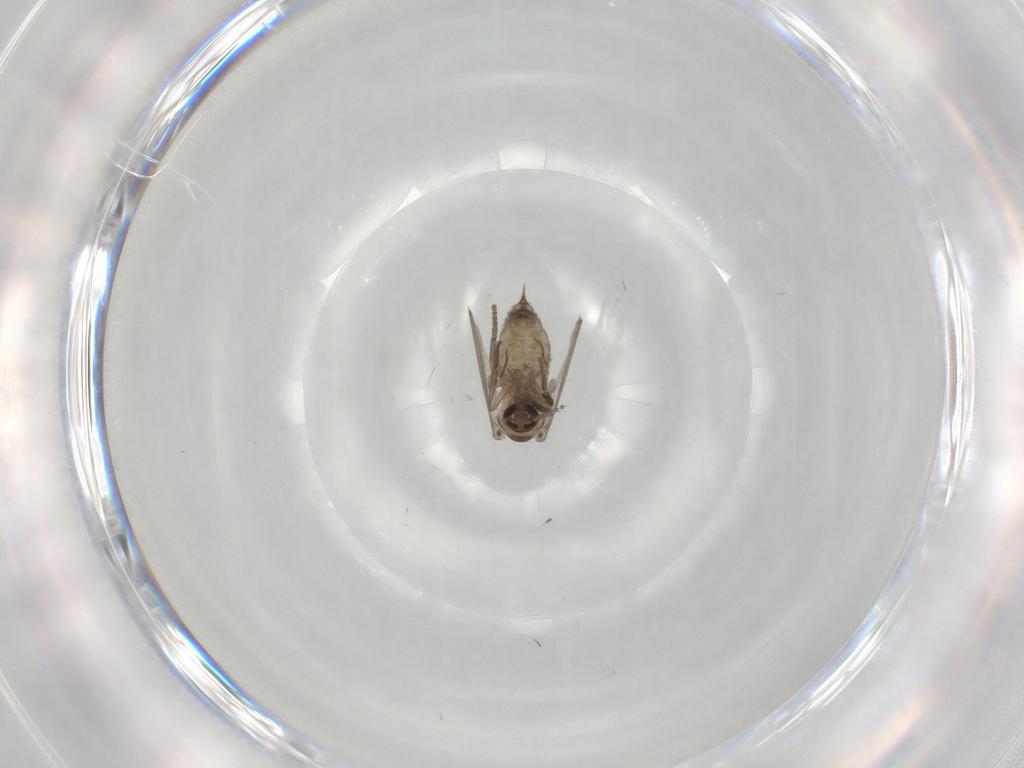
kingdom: Animalia
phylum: Arthropoda
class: Insecta
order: Diptera
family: Psychodidae
